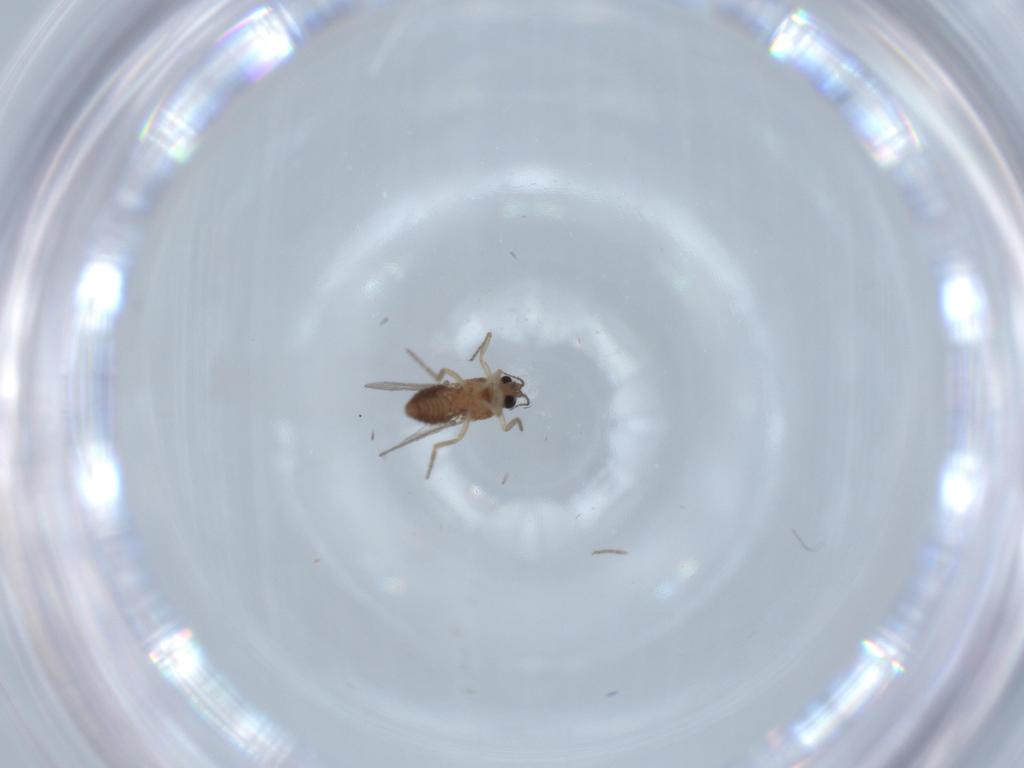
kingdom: Animalia
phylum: Arthropoda
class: Insecta
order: Diptera
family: Ceratopogonidae
